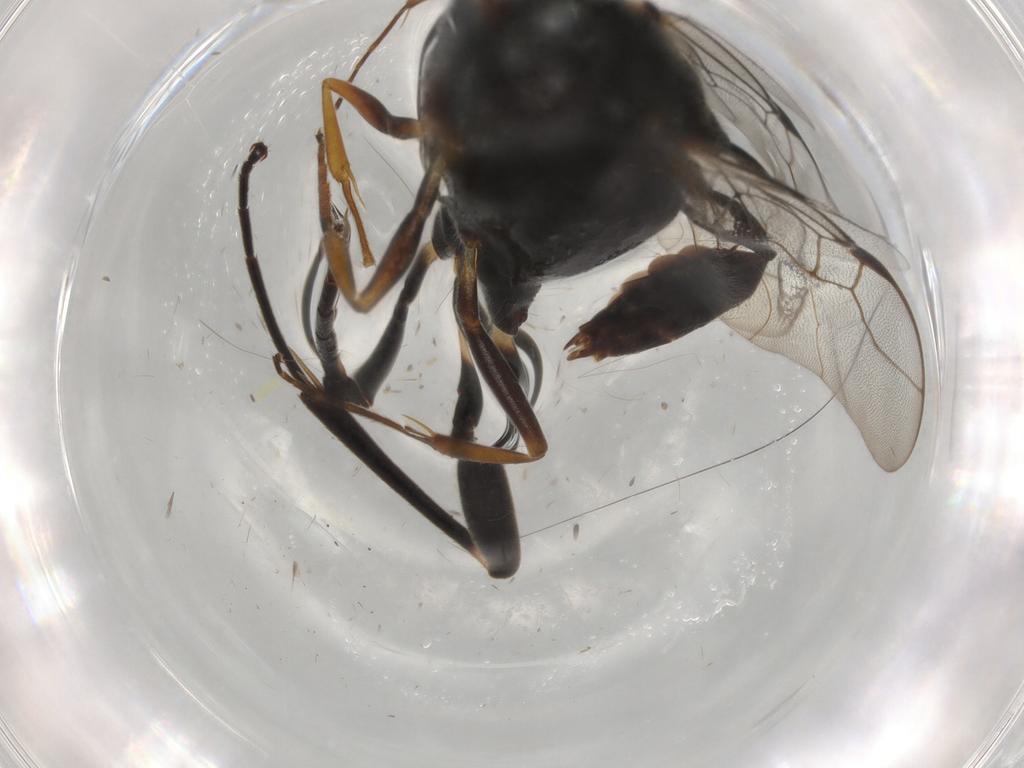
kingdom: Animalia
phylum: Arthropoda
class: Insecta
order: Hymenoptera
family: Evaniidae
